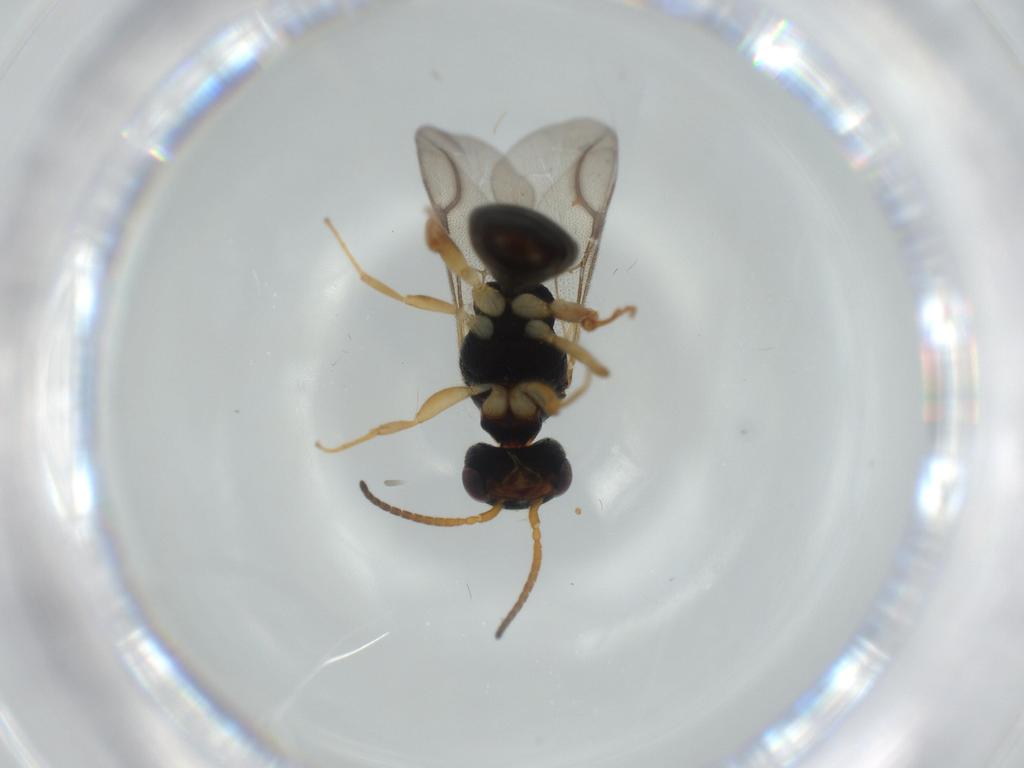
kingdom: Animalia
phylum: Arthropoda
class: Insecta
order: Hymenoptera
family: Bethylidae
